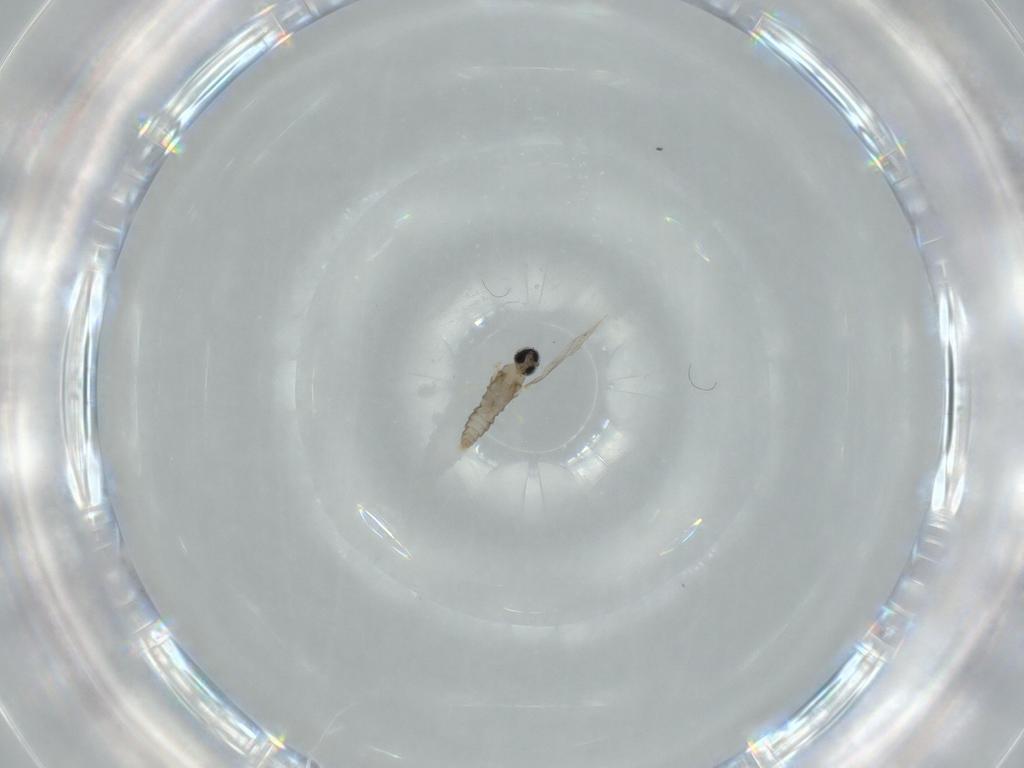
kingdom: Animalia
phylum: Arthropoda
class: Insecta
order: Diptera
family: Cecidomyiidae
